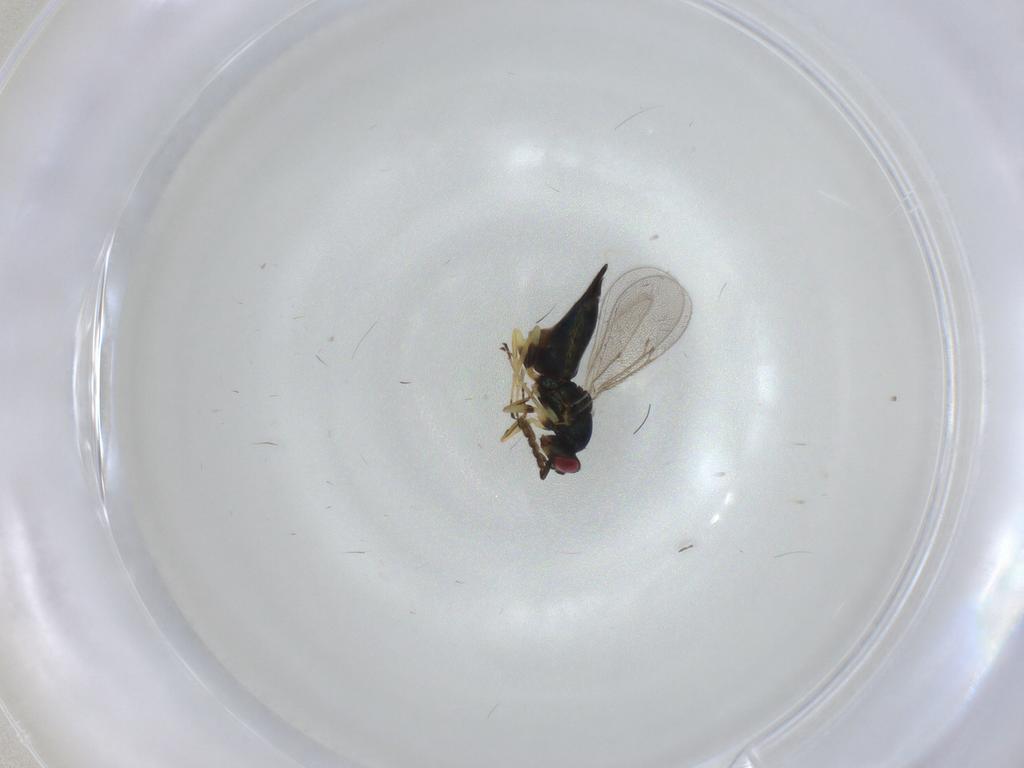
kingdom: Animalia
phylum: Arthropoda
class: Insecta
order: Hymenoptera
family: Eulophidae
